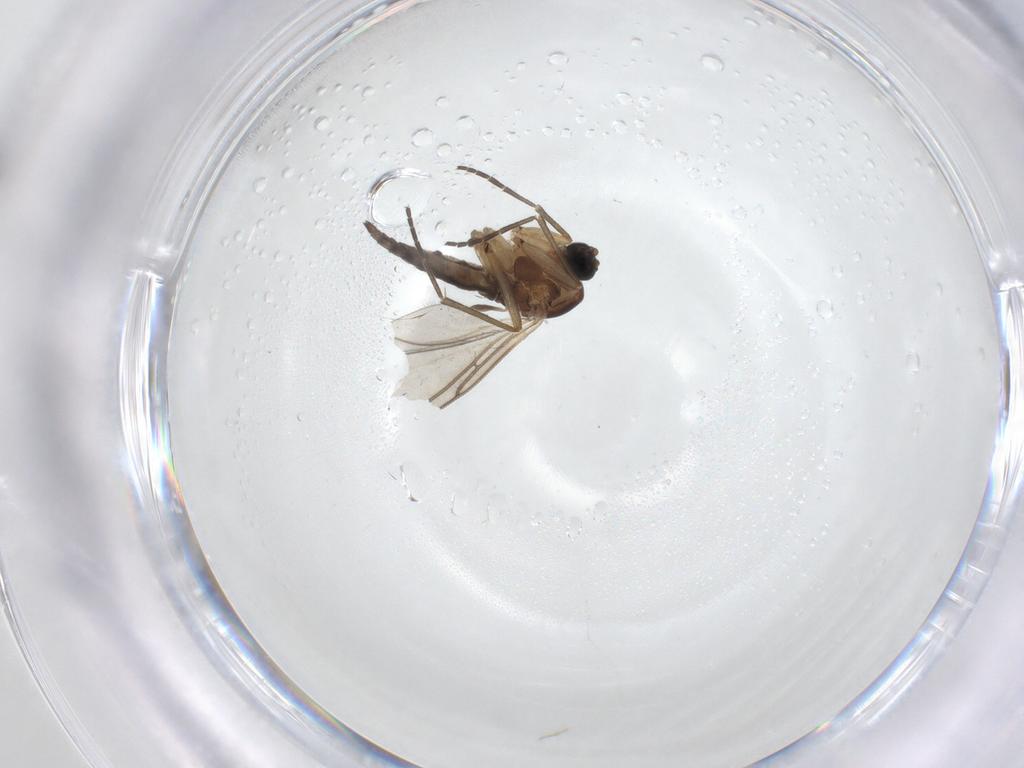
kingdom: Animalia
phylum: Arthropoda
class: Insecta
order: Diptera
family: Sciaridae
